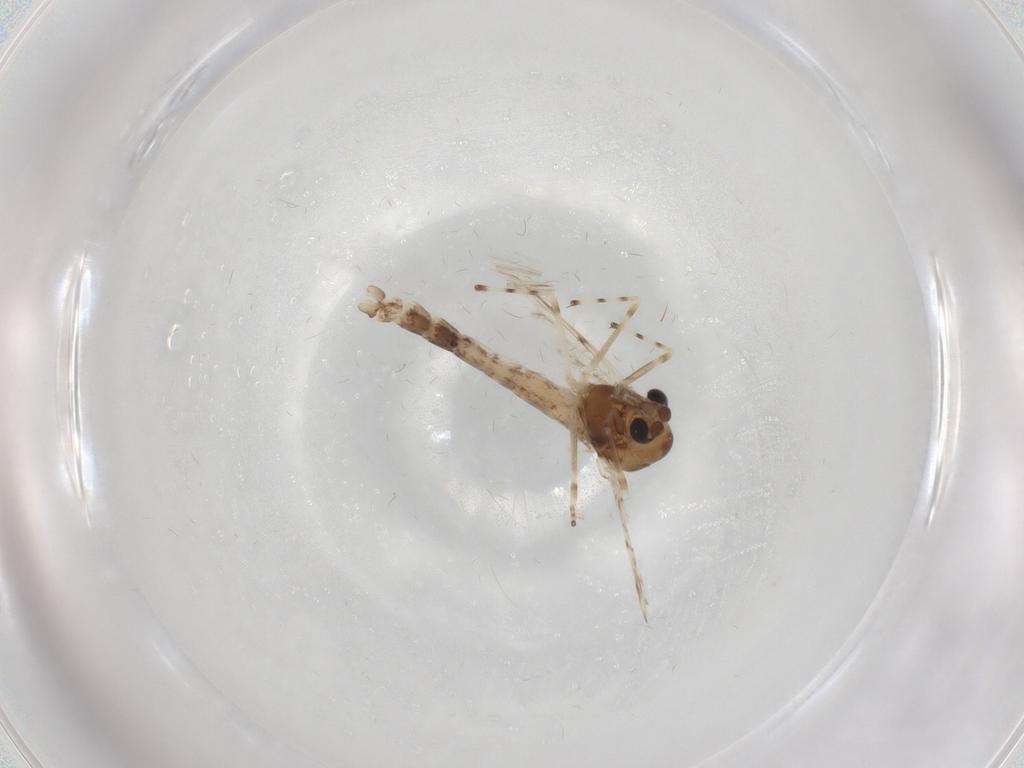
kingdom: Animalia
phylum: Arthropoda
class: Insecta
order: Diptera
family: Chironomidae
